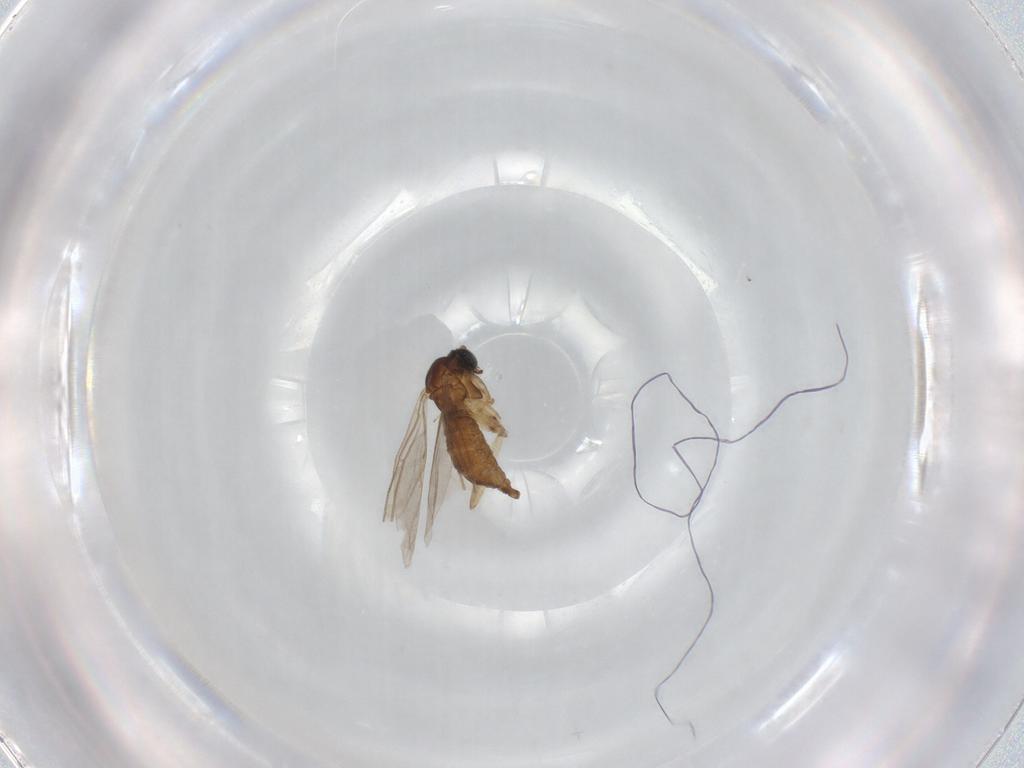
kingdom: Animalia
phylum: Arthropoda
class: Insecta
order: Diptera
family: Sciaridae
